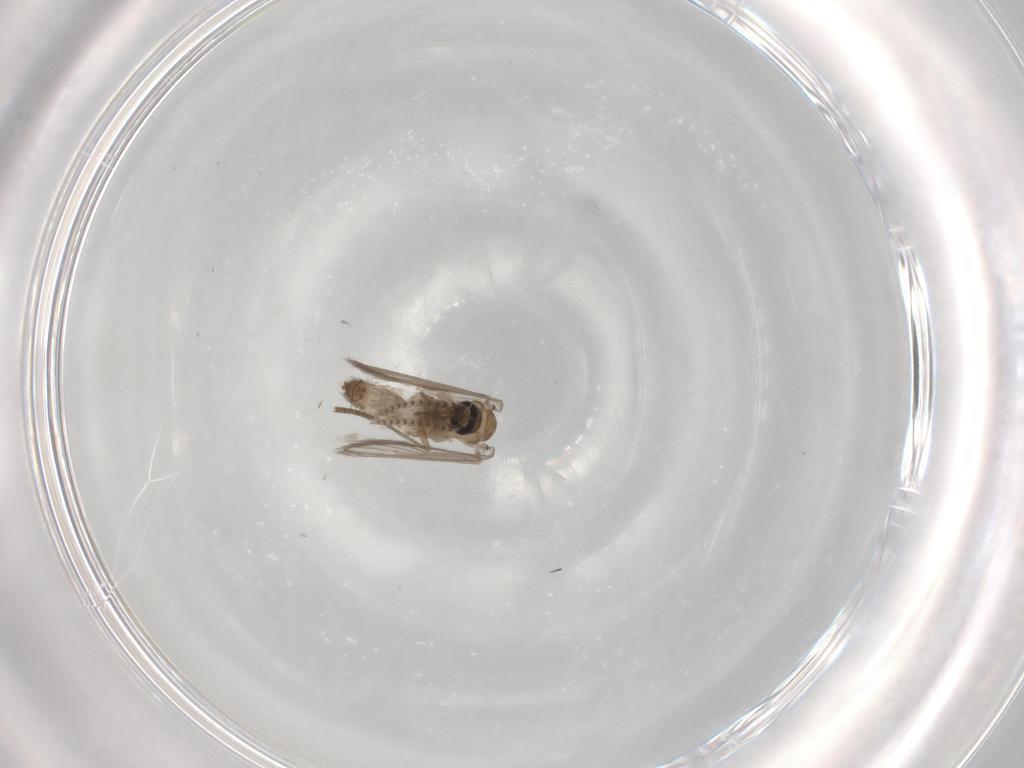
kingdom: Animalia
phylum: Arthropoda
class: Insecta
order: Diptera
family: Psychodidae
